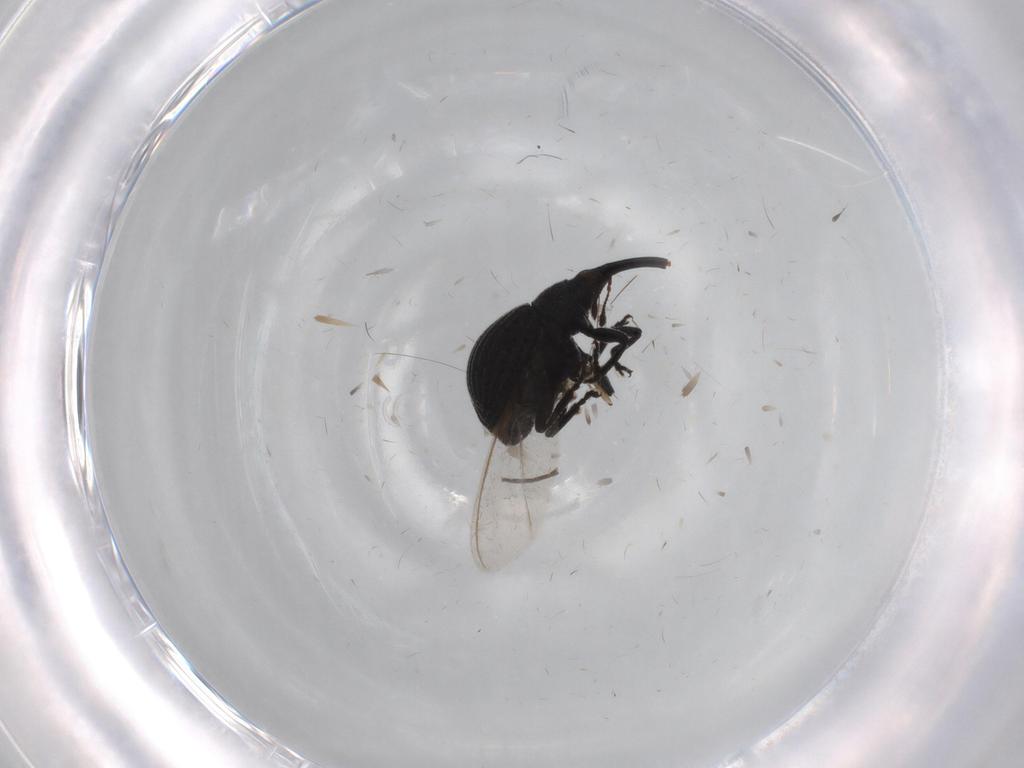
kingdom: Animalia
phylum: Arthropoda
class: Insecta
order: Coleoptera
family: Brentidae
